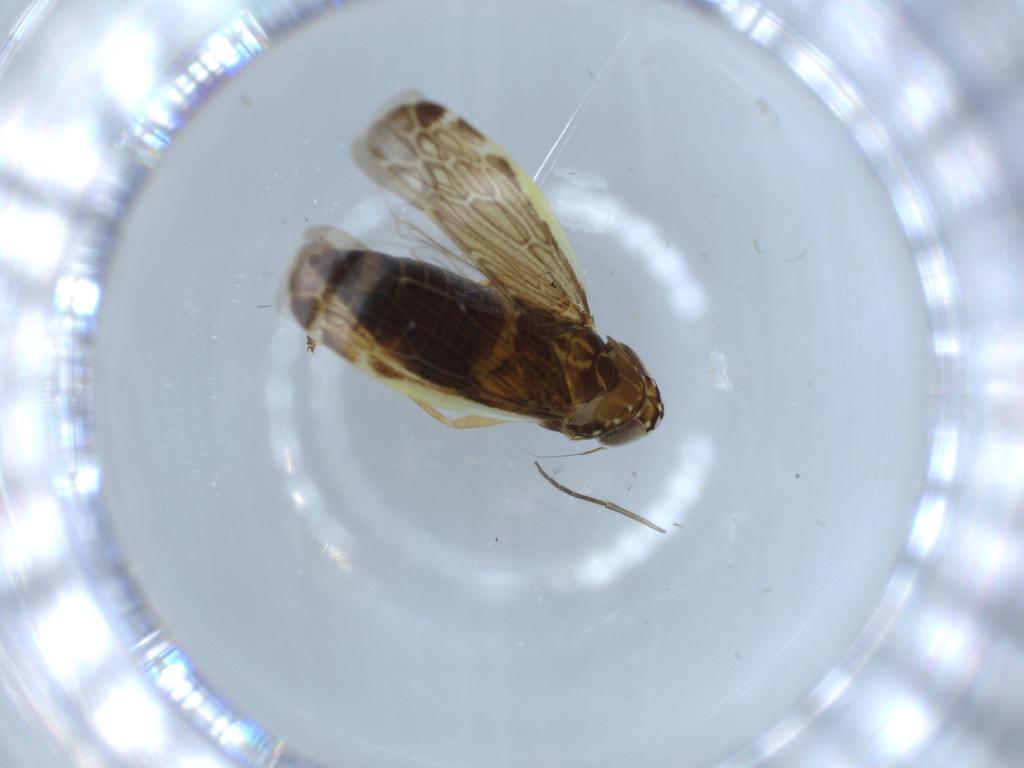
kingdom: Animalia
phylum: Arthropoda
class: Insecta
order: Hemiptera
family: Cicadellidae
